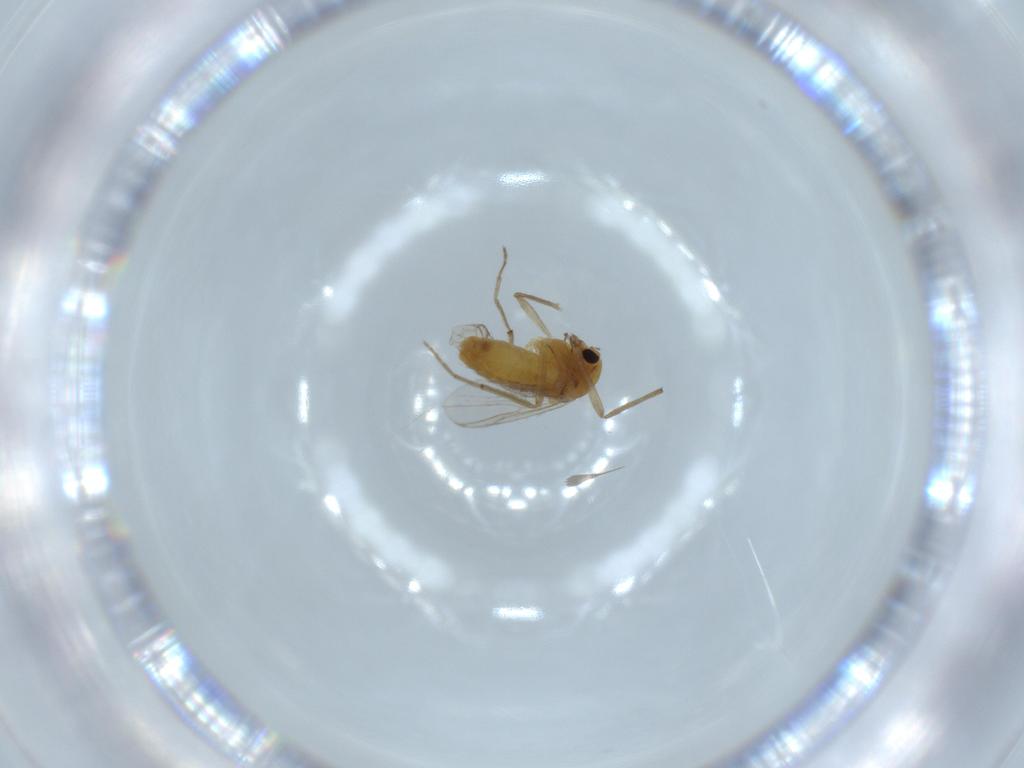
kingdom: Animalia
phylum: Arthropoda
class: Insecta
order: Diptera
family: Chironomidae
